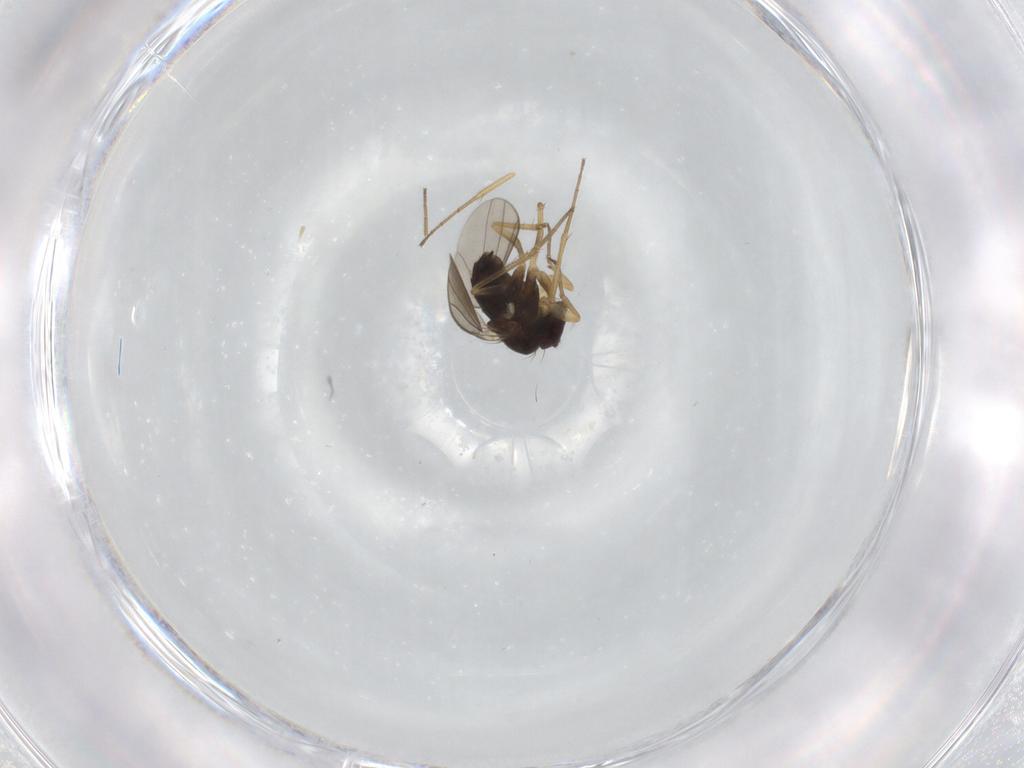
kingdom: Animalia
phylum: Arthropoda
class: Insecta
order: Diptera
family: Dolichopodidae
